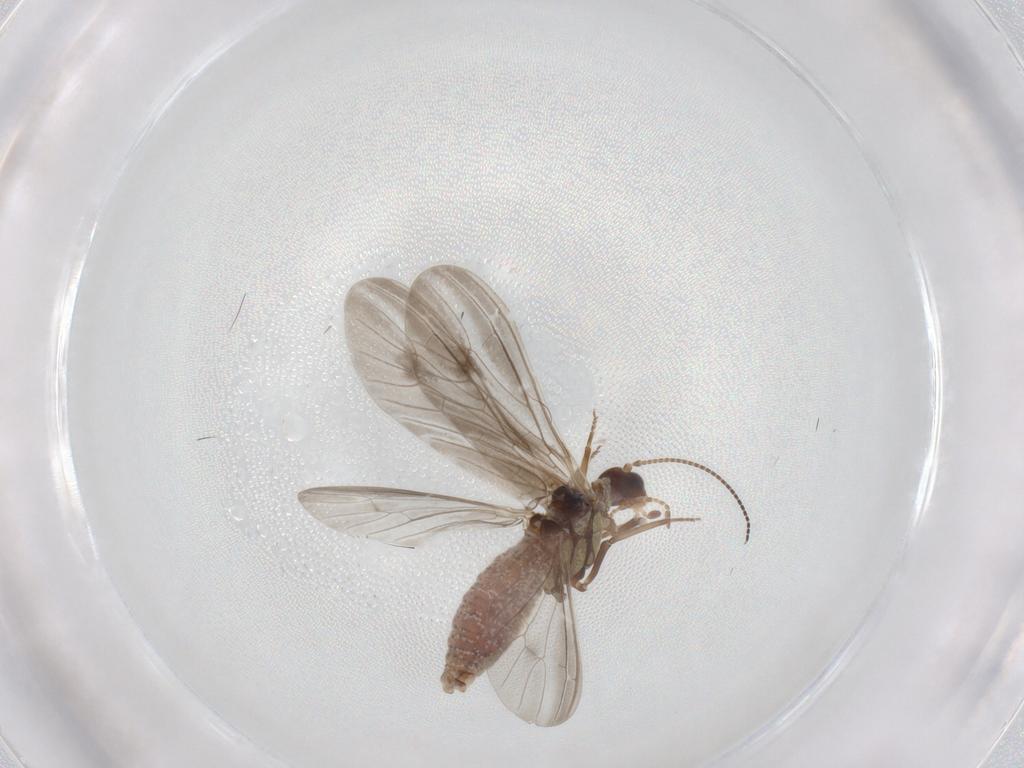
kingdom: Animalia
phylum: Arthropoda
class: Insecta
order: Neuroptera
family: Coniopterygidae
